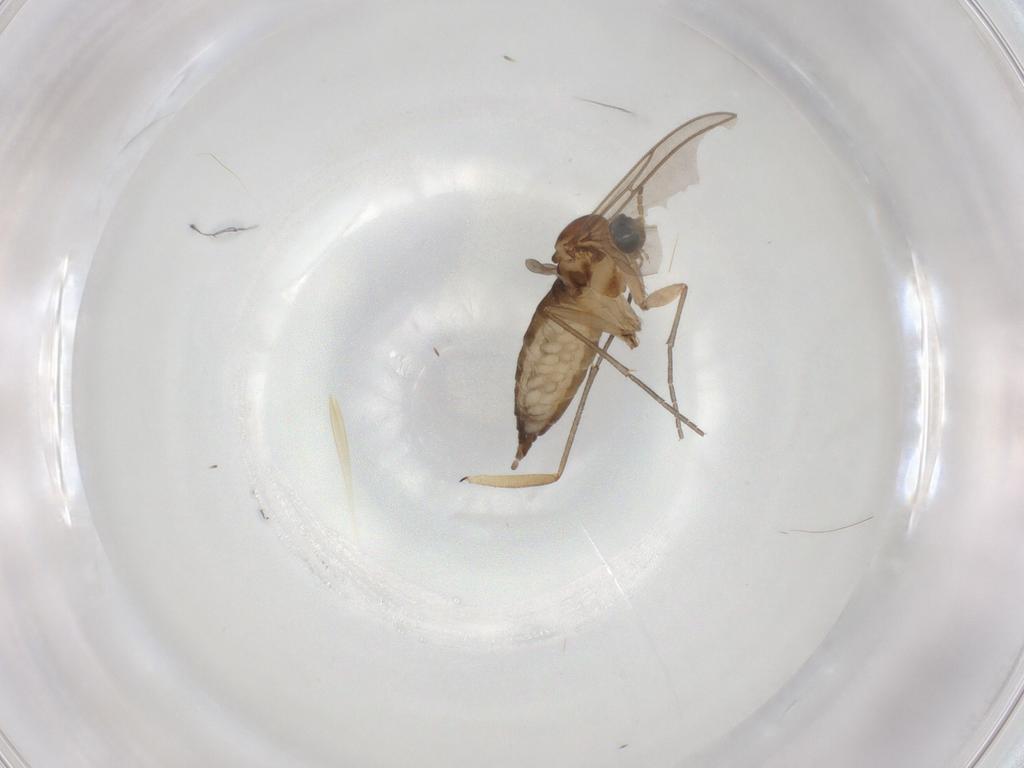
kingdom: Animalia
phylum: Arthropoda
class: Insecta
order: Diptera
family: Sciaridae
